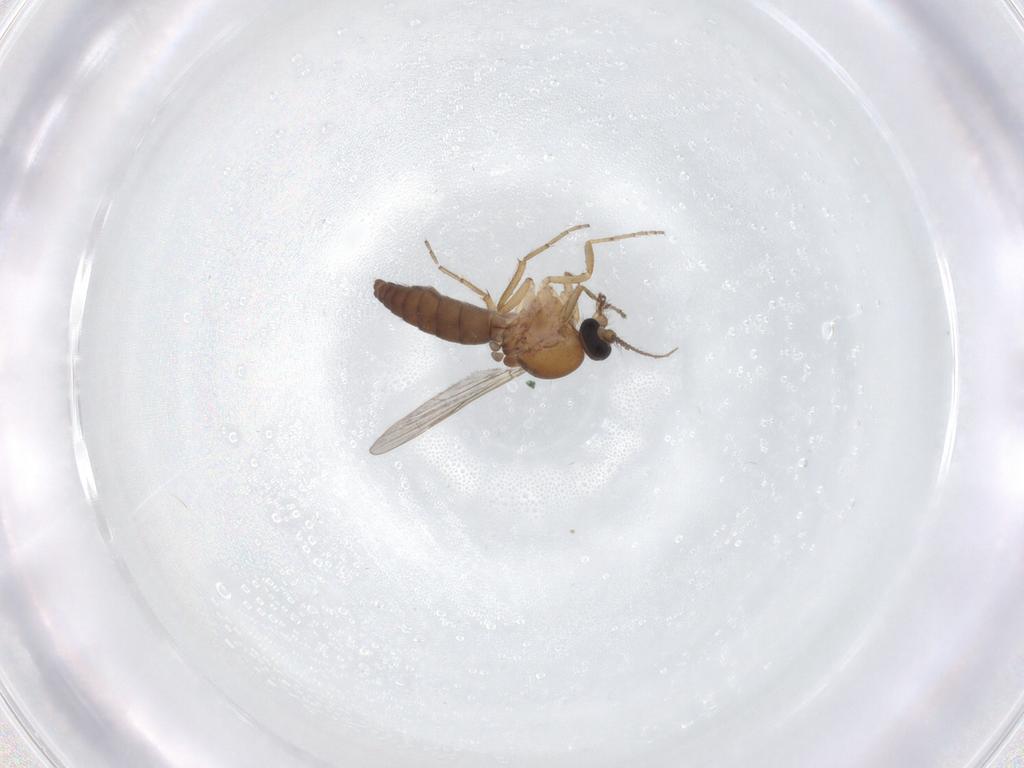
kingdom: Animalia
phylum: Arthropoda
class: Insecta
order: Diptera
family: Ceratopogonidae
